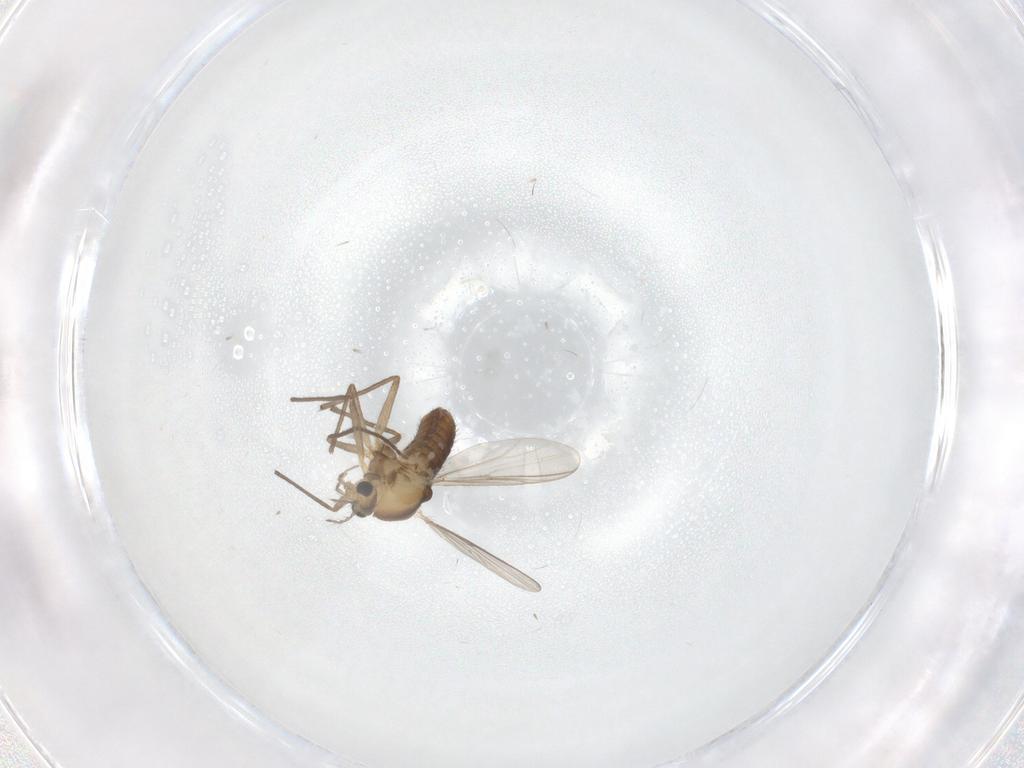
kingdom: Animalia
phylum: Arthropoda
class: Insecta
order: Diptera
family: Chironomidae
